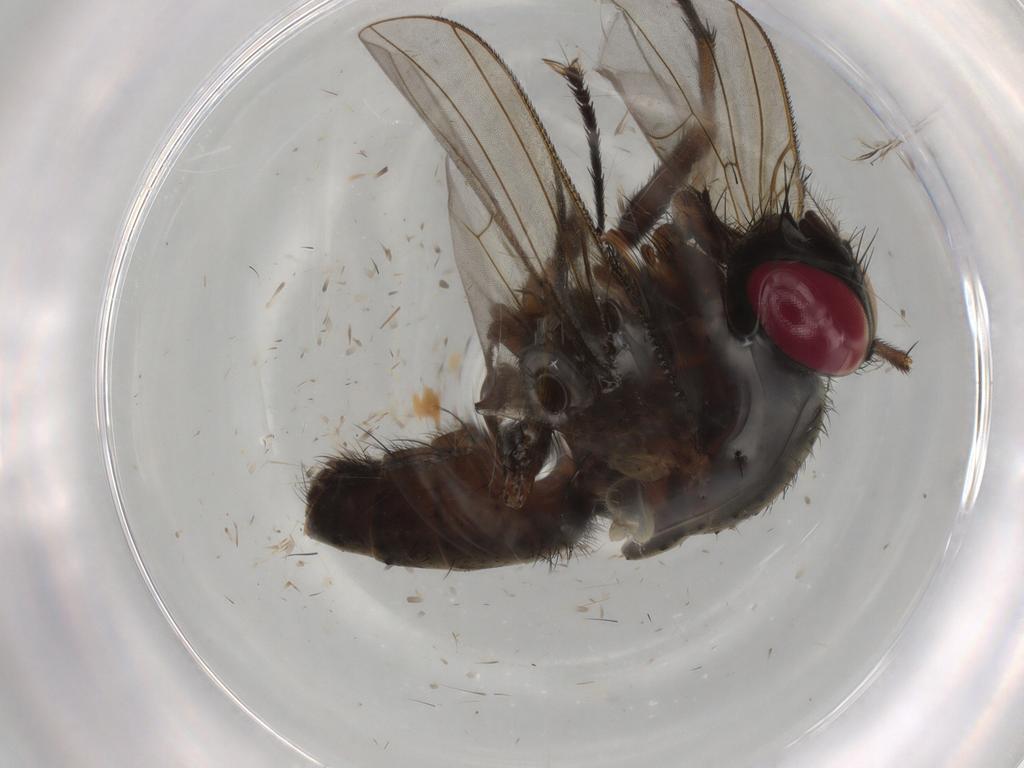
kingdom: Animalia
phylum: Arthropoda
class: Insecta
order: Diptera
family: Muscidae
